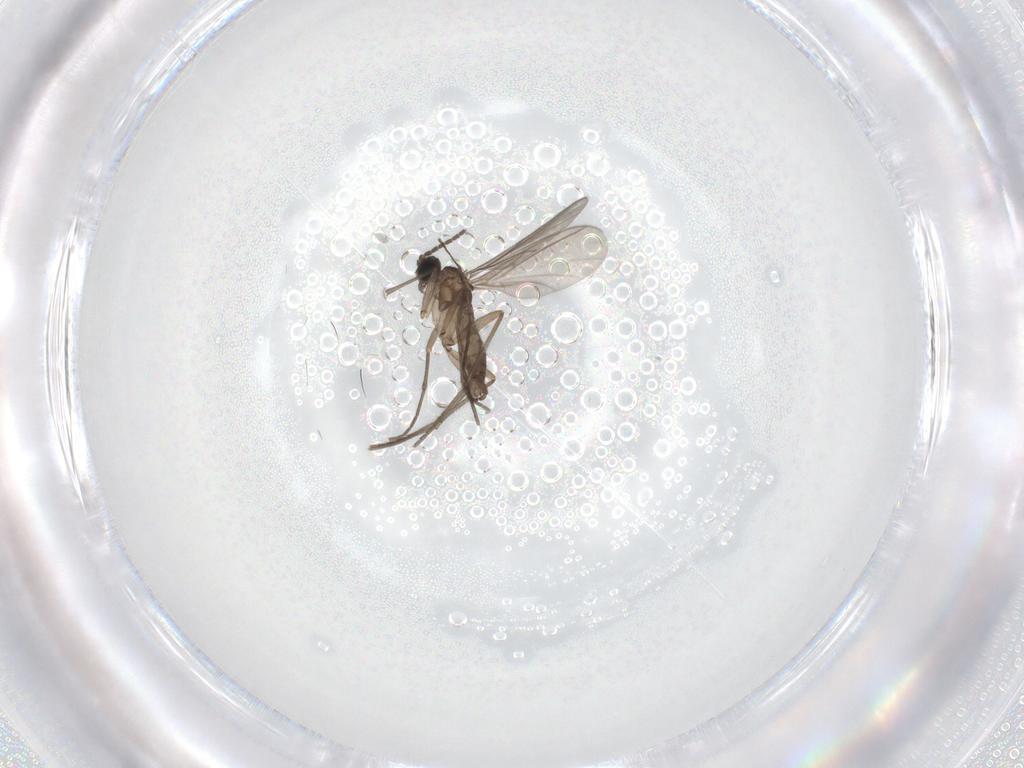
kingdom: Animalia
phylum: Arthropoda
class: Insecta
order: Diptera
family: Sciaridae
